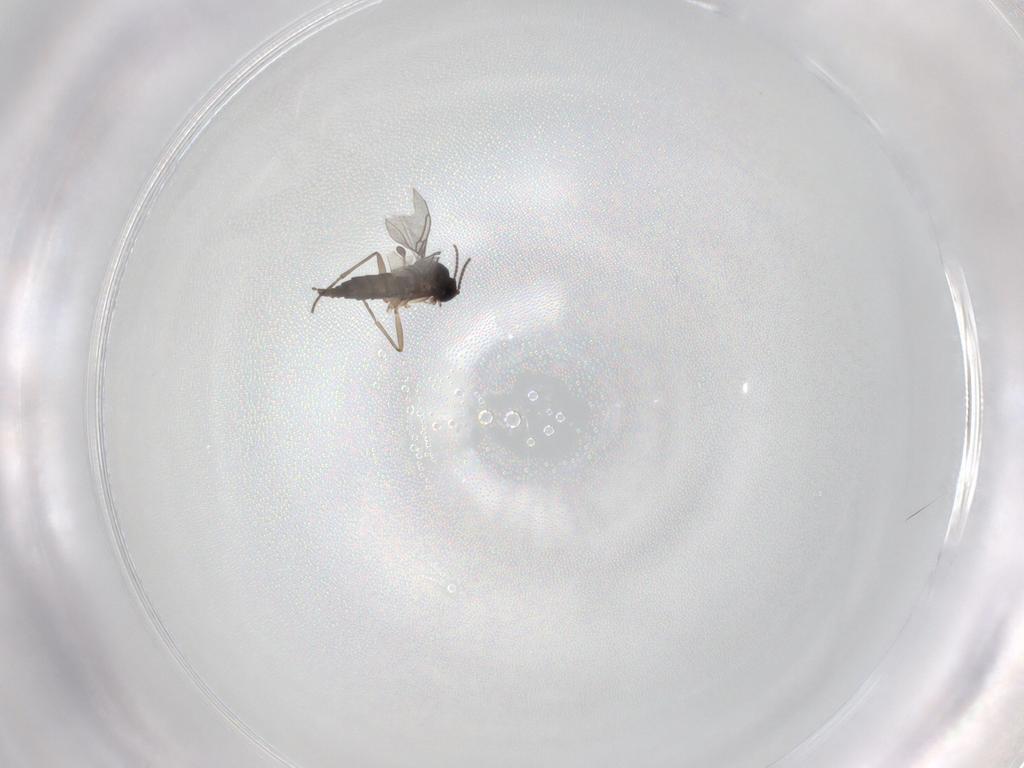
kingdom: Animalia
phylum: Arthropoda
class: Insecta
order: Diptera
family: Sciaridae
